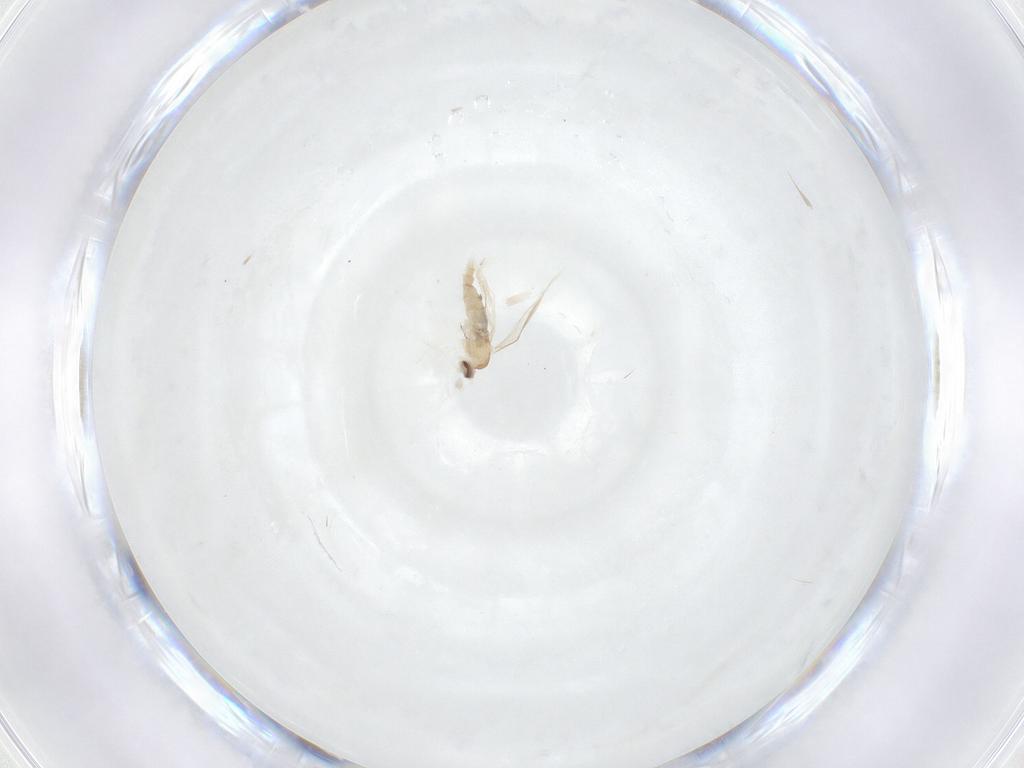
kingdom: Animalia
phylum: Arthropoda
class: Insecta
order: Diptera
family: Cecidomyiidae
